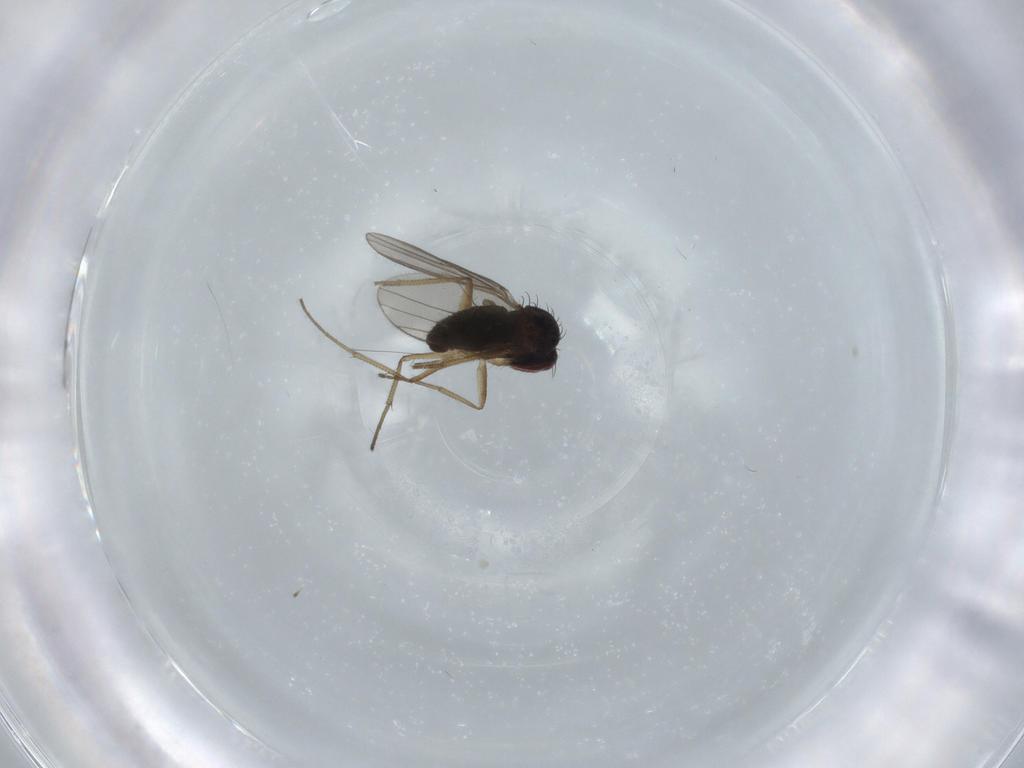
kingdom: Animalia
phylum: Arthropoda
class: Insecta
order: Diptera
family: Dolichopodidae
